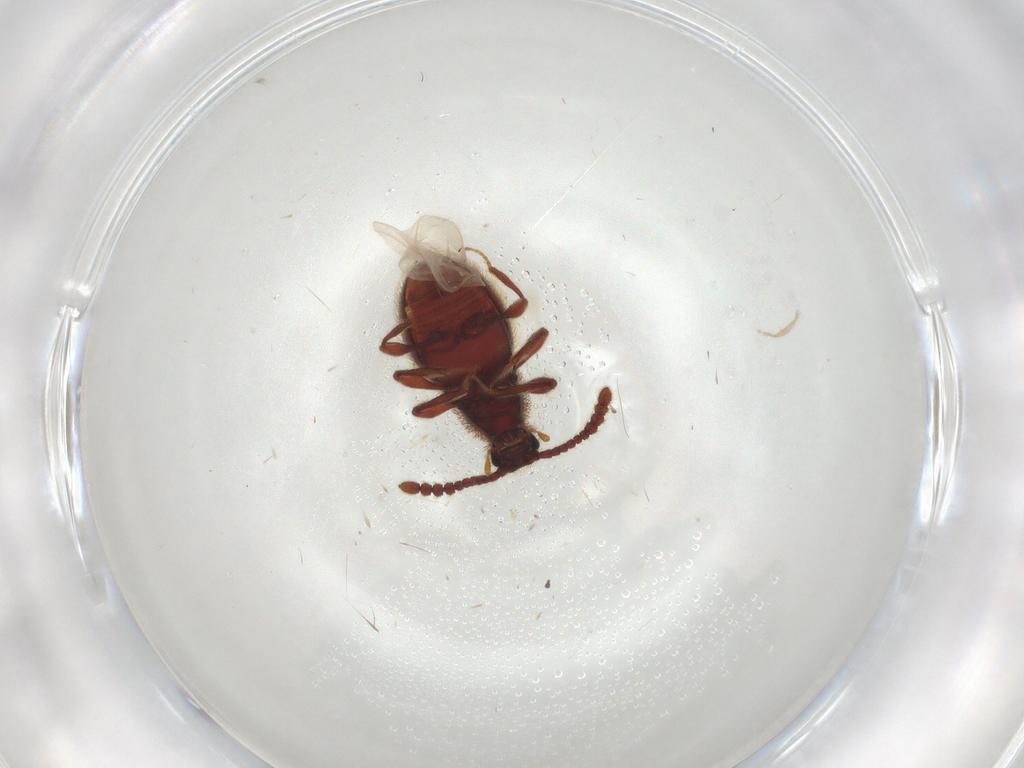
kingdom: Animalia
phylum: Arthropoda
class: Insecta
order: Coleoptera
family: Staphylinidae
